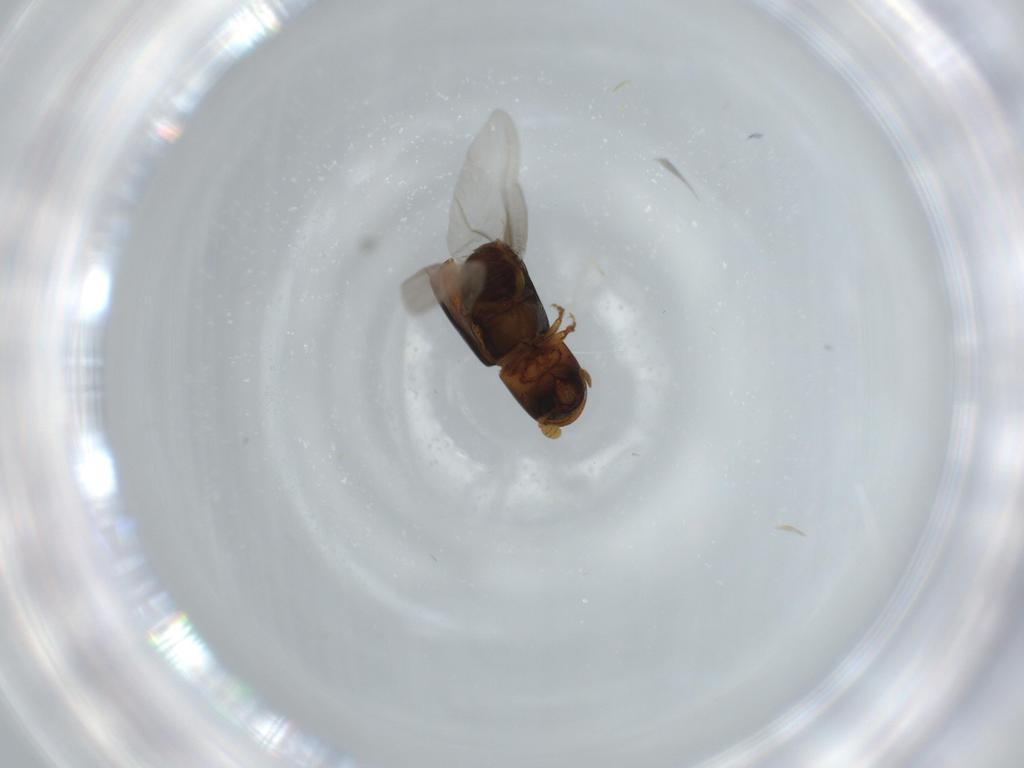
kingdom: Animalia
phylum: Arthropoda
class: Insecta
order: Coleoptera
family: Curculionidae
